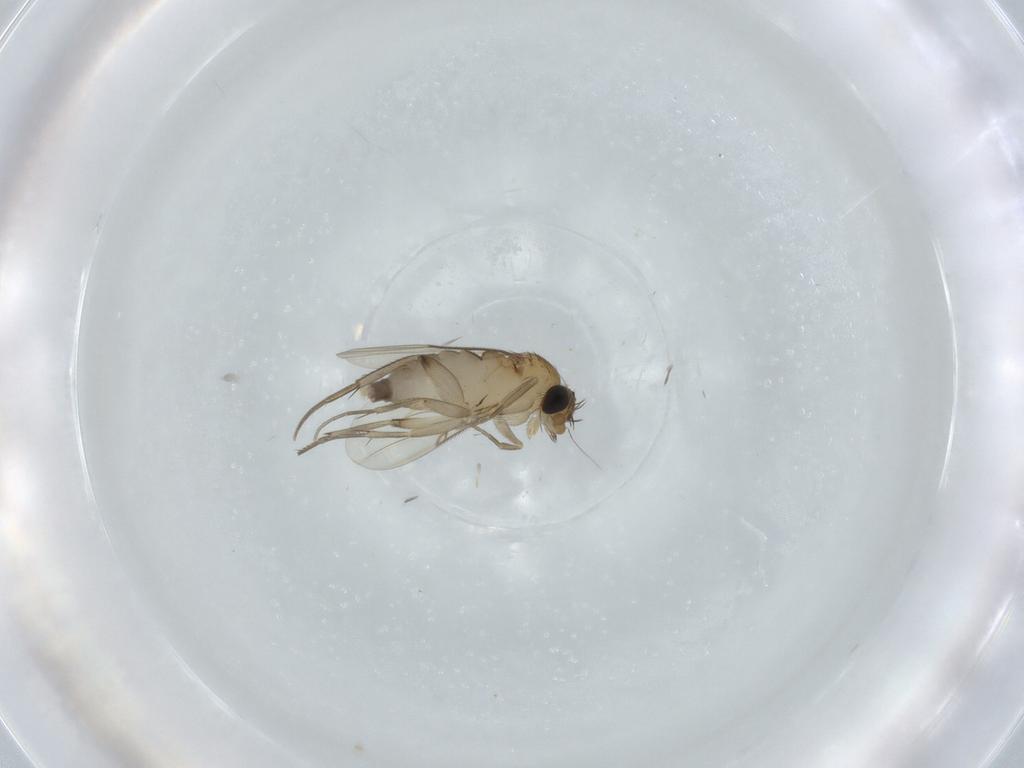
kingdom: Animalia
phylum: Arthropoda
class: Insecta
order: Diptera
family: Phoridae
